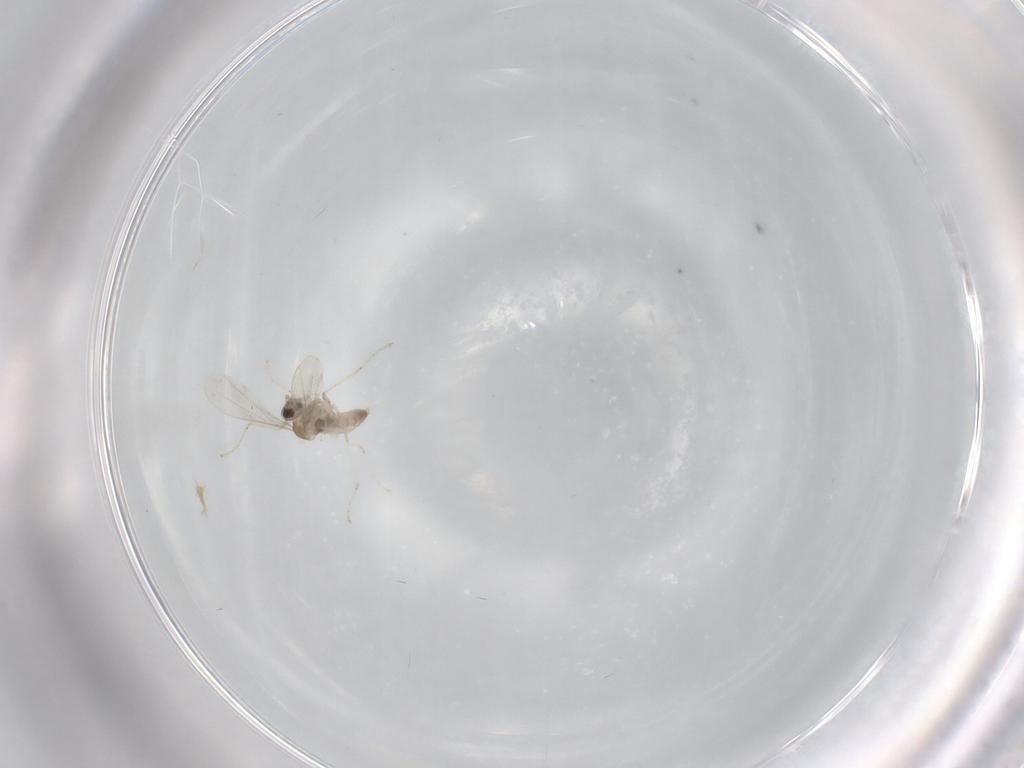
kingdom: Animalia
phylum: Arthropoda
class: Insecta
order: Diptera
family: Cecidomyiidae
